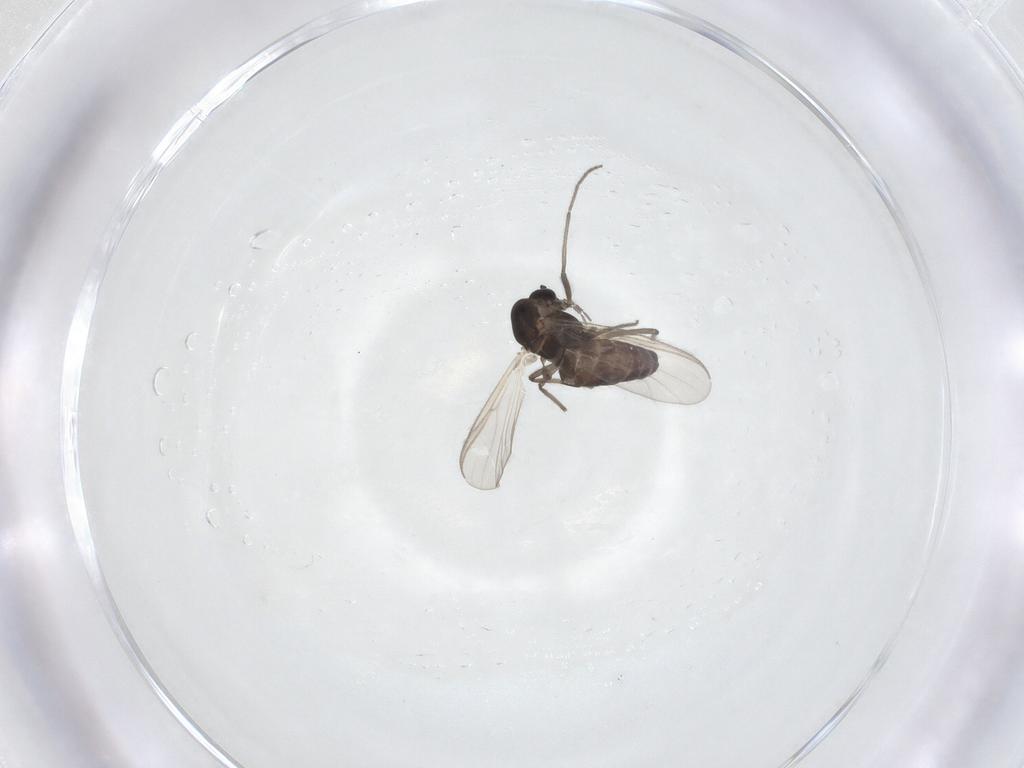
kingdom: Animalia
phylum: Arthropoda
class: Insecta
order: Diptera
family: Chironomidae
